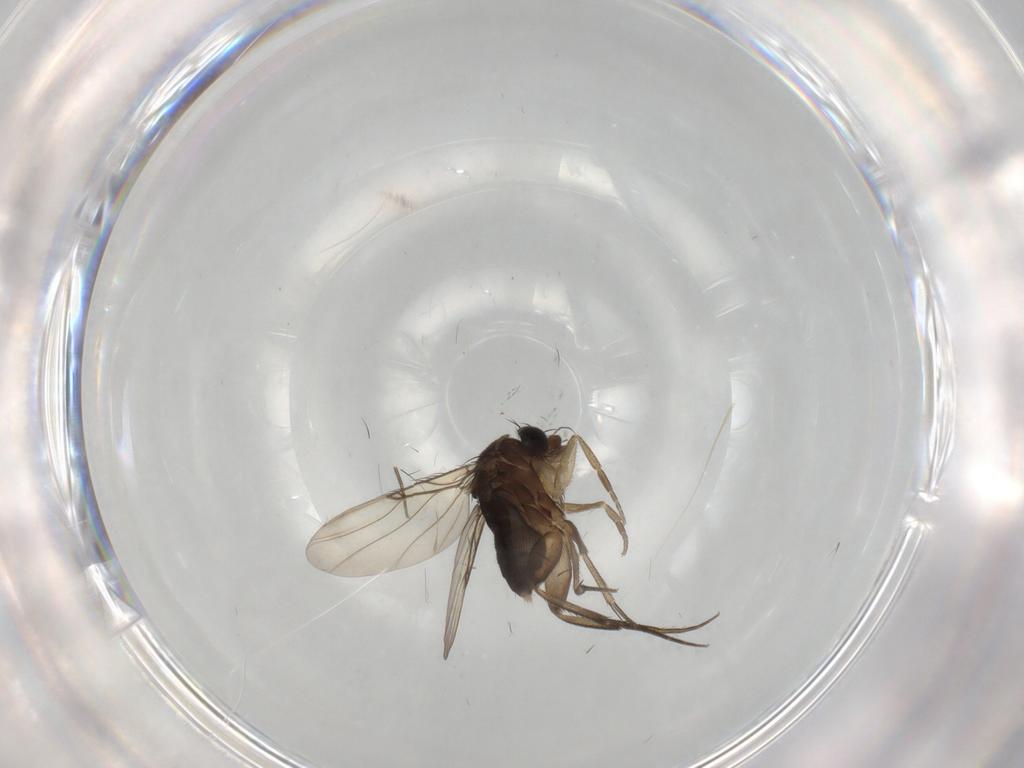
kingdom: Animalia
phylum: Arthropoda
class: Insecta
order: Diptera
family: Phoridae
